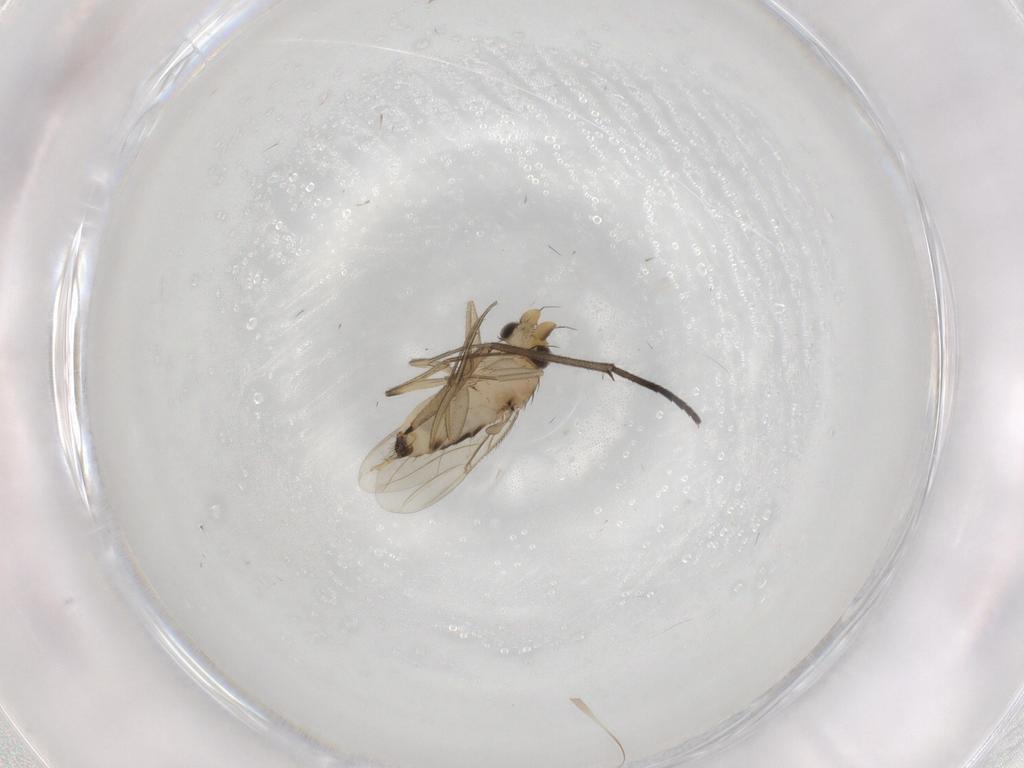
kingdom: Animalia
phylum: Arthropoda
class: Insecta
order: Diptera
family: Phoridae
